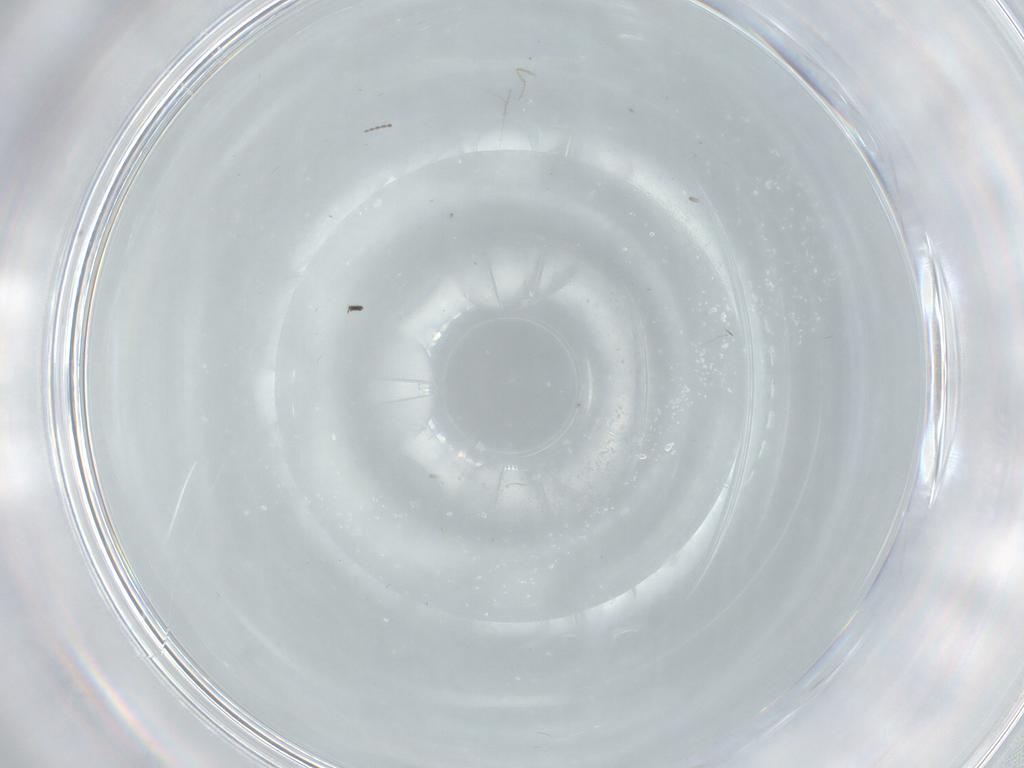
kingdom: Animalia
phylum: Arthropoda
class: Insecta
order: Diptera
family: Sciaridae
